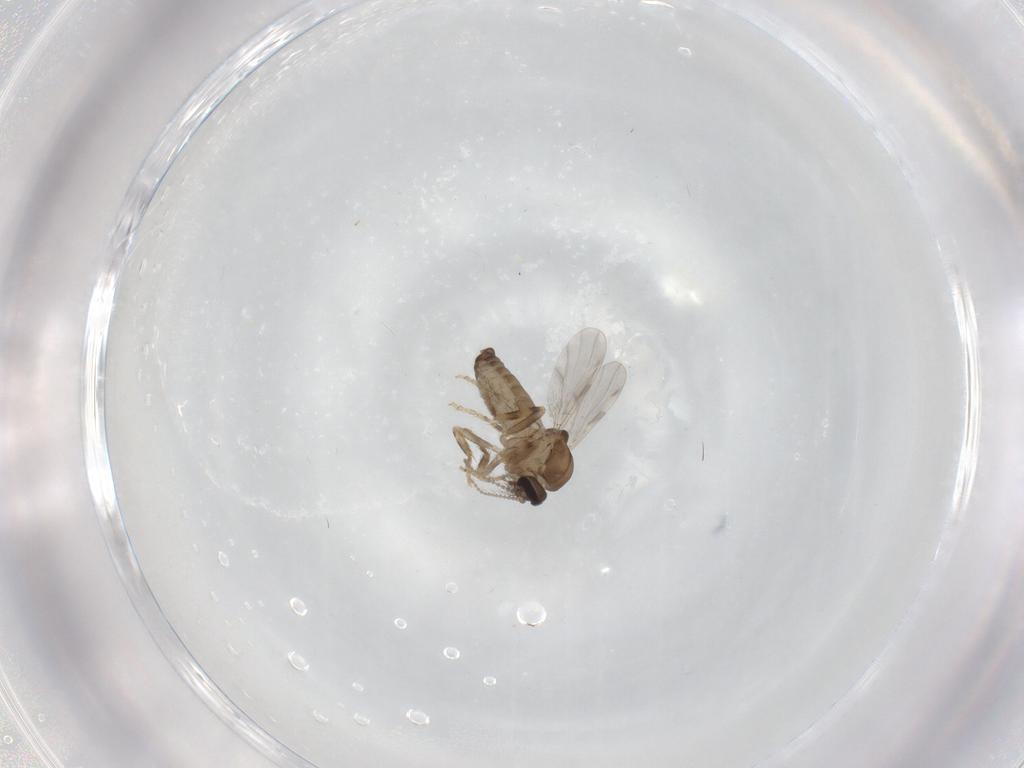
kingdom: Animalia
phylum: Arthropoda
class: Insecta
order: Diptera
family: Ceratopogonidae
